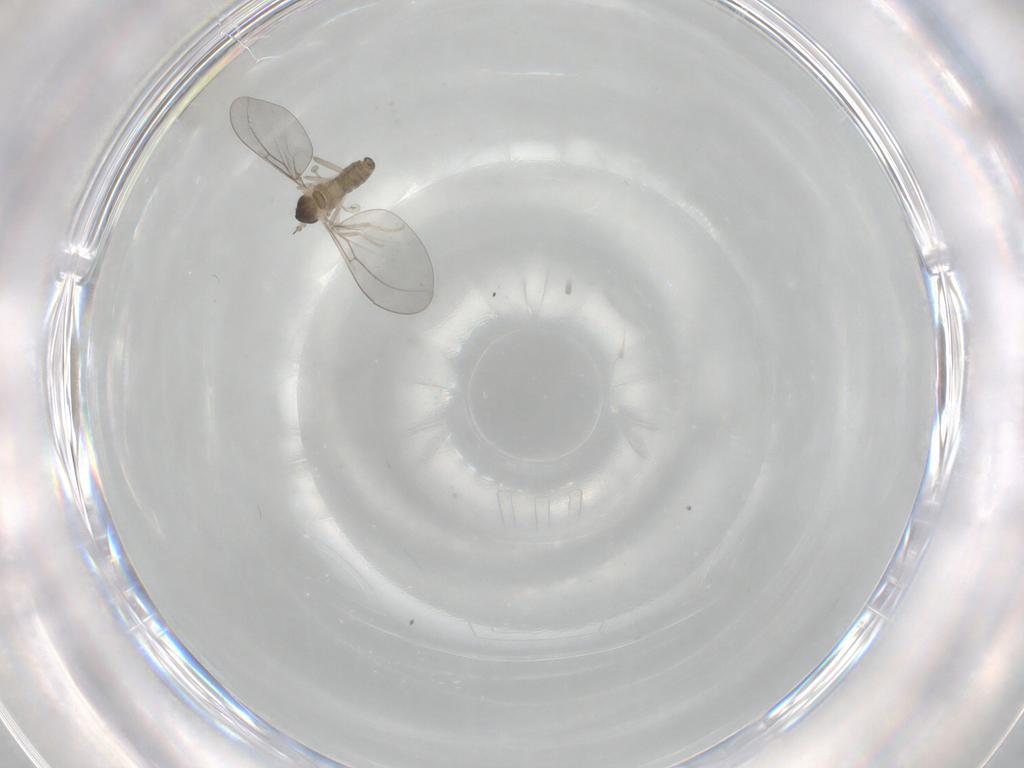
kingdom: Animalia
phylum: Arthropoda
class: Insecta
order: Diptera
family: Cecidomyiidae
